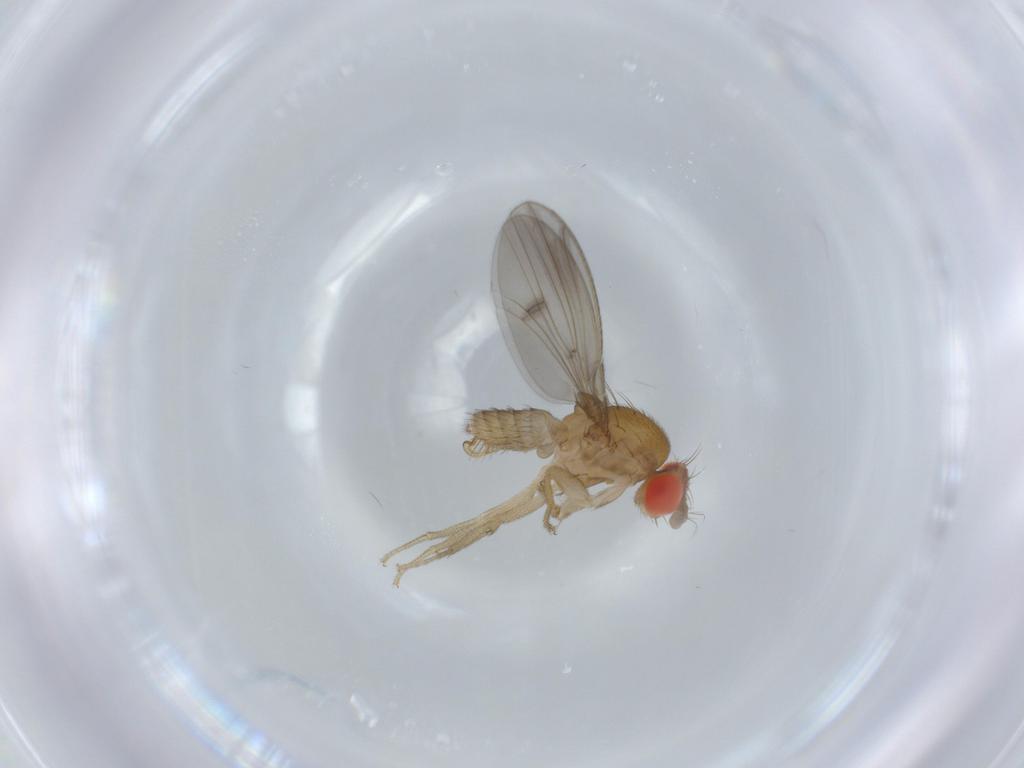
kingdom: Animalia
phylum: Arthropoda
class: Insecta
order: Diptera
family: Drosophilidae
